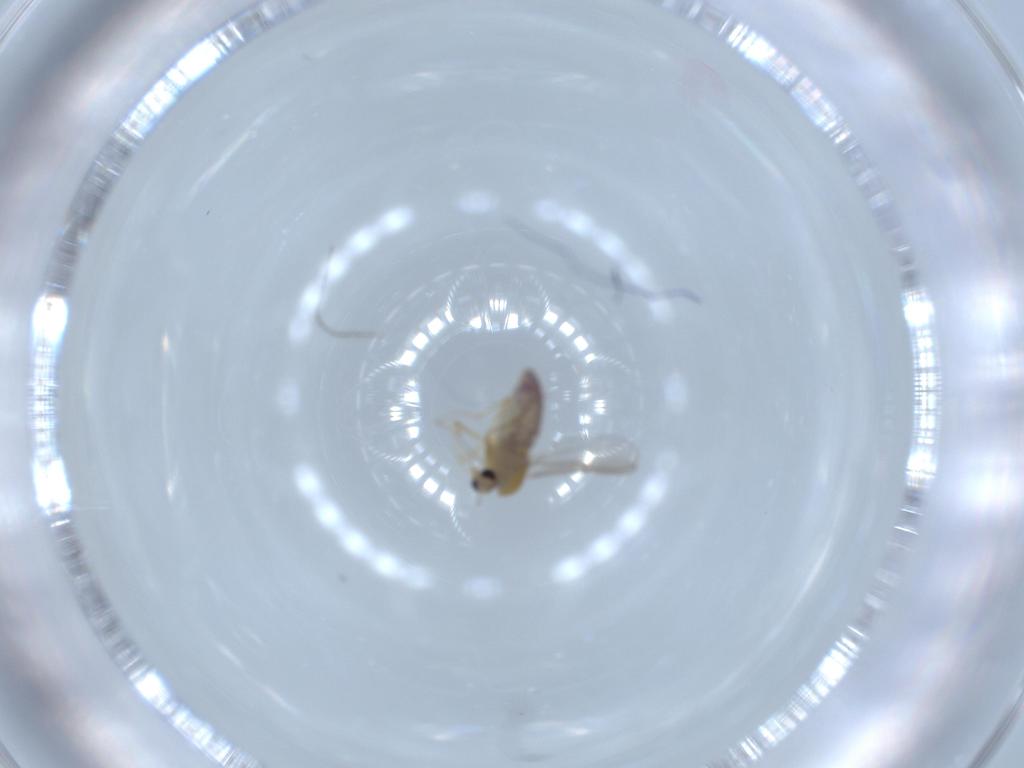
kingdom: Animalia
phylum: Arthropoda
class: Insecta
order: Diptera
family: Chironomidae
